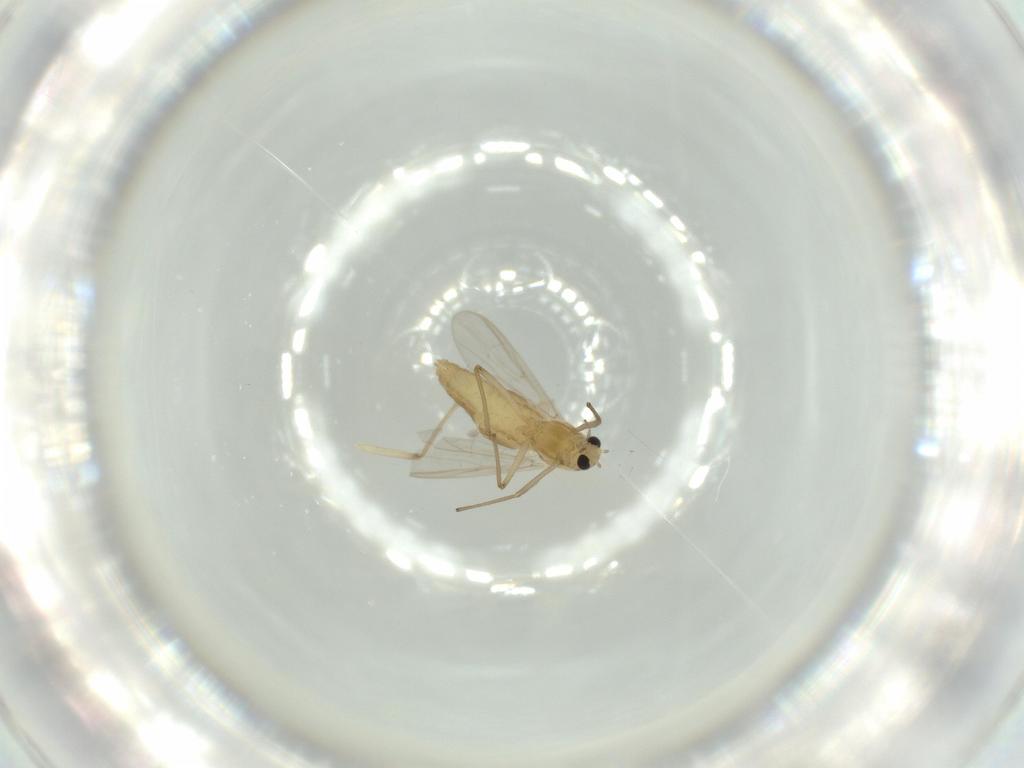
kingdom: Animalia
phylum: Arthropoda
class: Insecta
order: Diptera
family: Chironomidae
